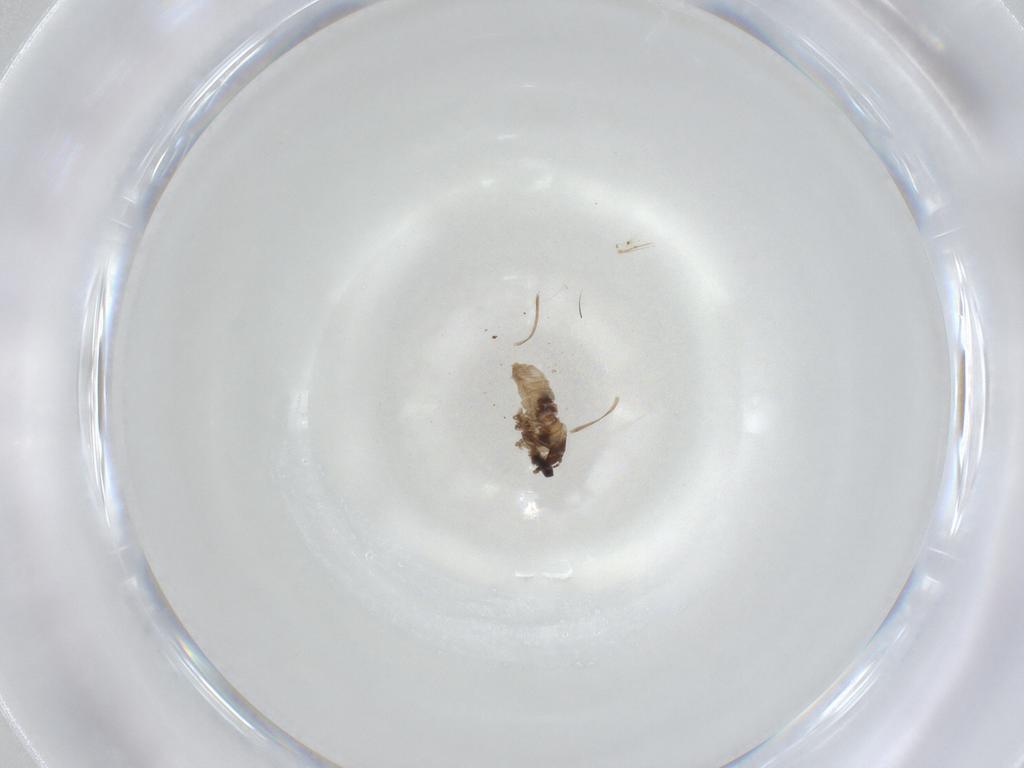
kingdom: Animalia
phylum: Arthropoda
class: Insecta
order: Diptera
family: Cecidomyiidae
